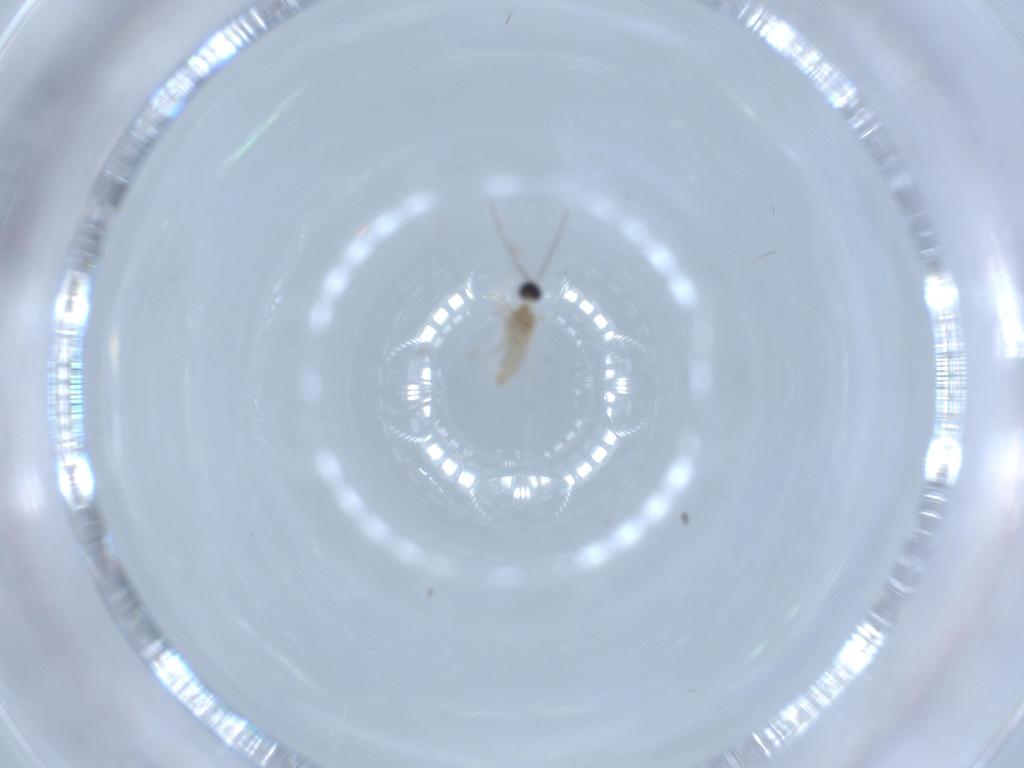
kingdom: Animalia
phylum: Arthropoda
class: Insecta
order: Diptera
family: Cecidomyiidae
